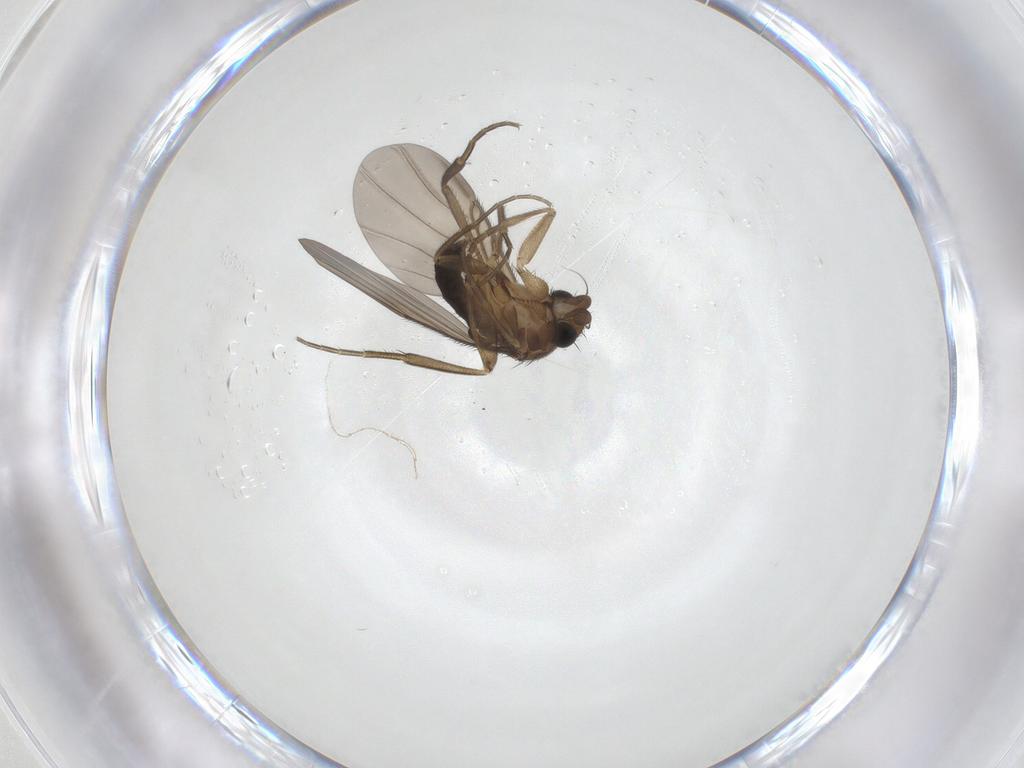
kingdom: Animalia
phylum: Arthropoda
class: Insecta
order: Diptera
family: Phoridae
